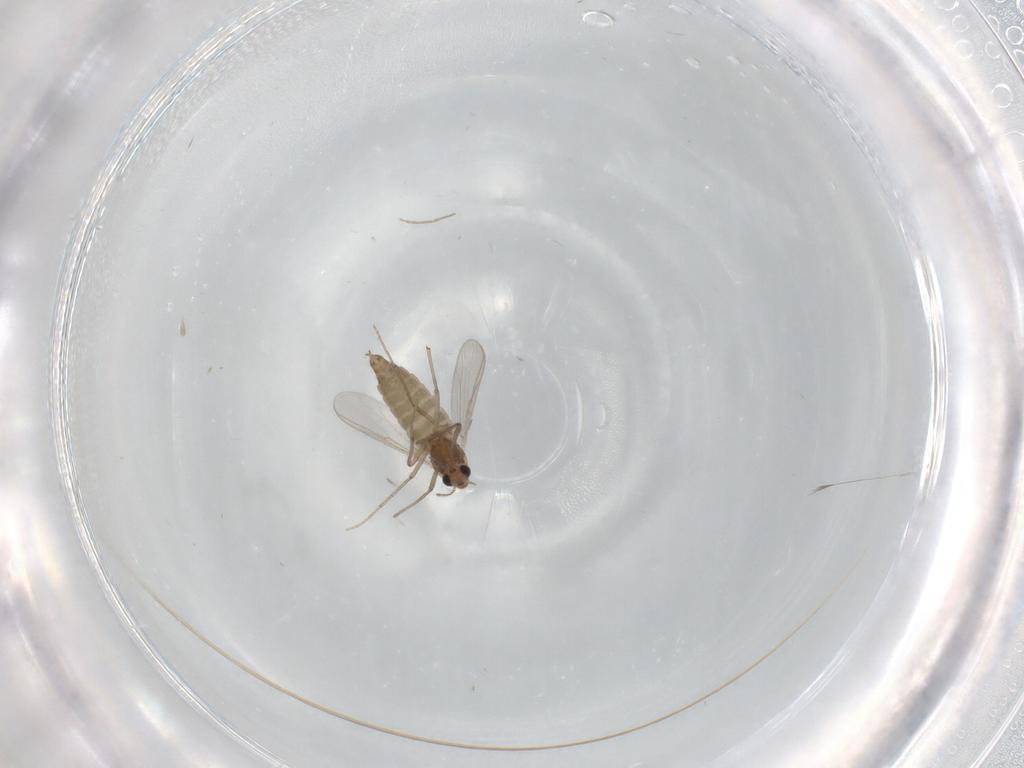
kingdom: Animalia
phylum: Arthropoda
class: Insecta
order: Diptera
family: Chironomidae
